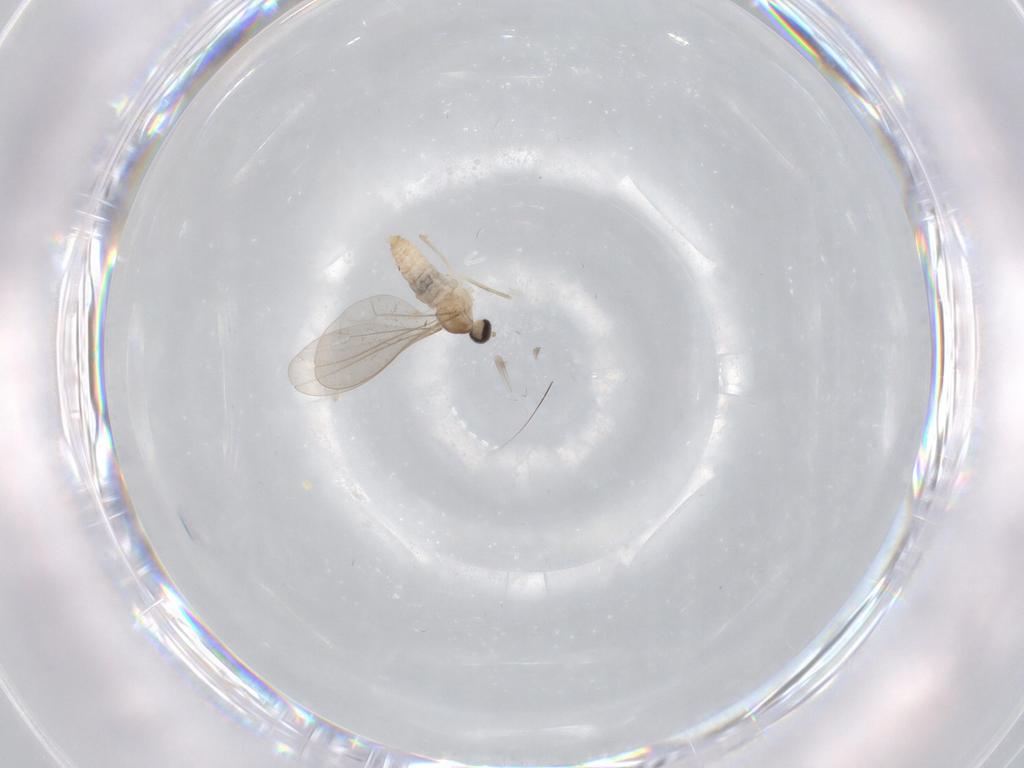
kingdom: Animalia
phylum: Arthropoda
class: Insecta
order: Diptera
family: Cecidomyiidae
